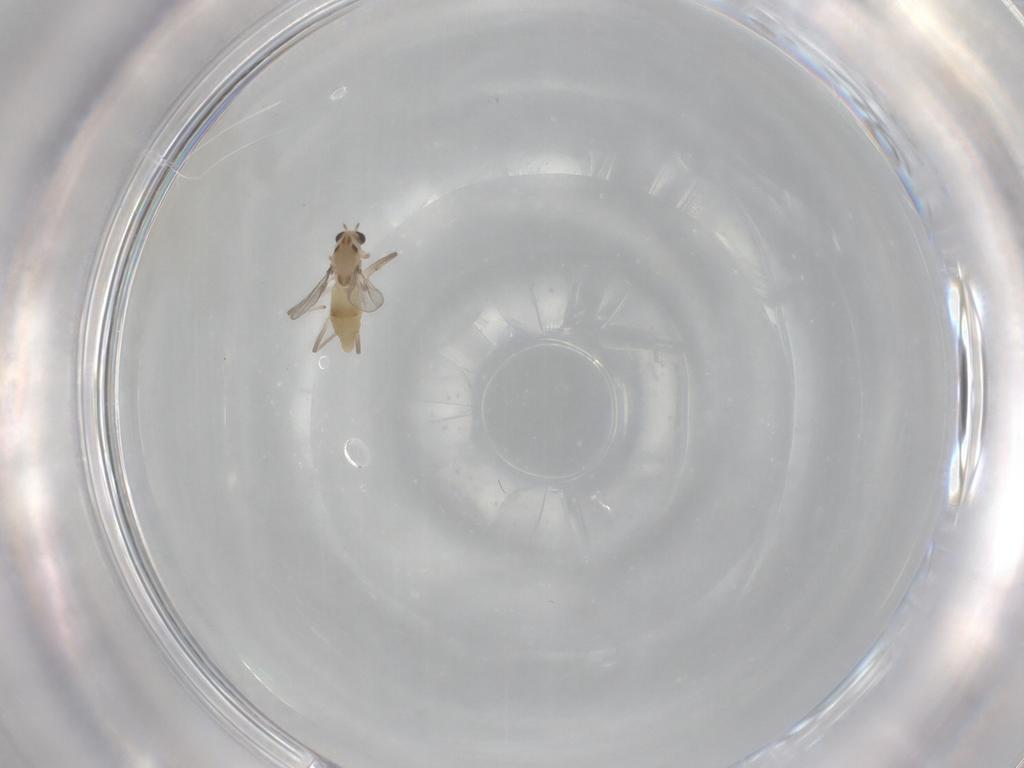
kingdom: Animalia
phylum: Arthropoda
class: Insecta
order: Diptera
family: Chironomidae
